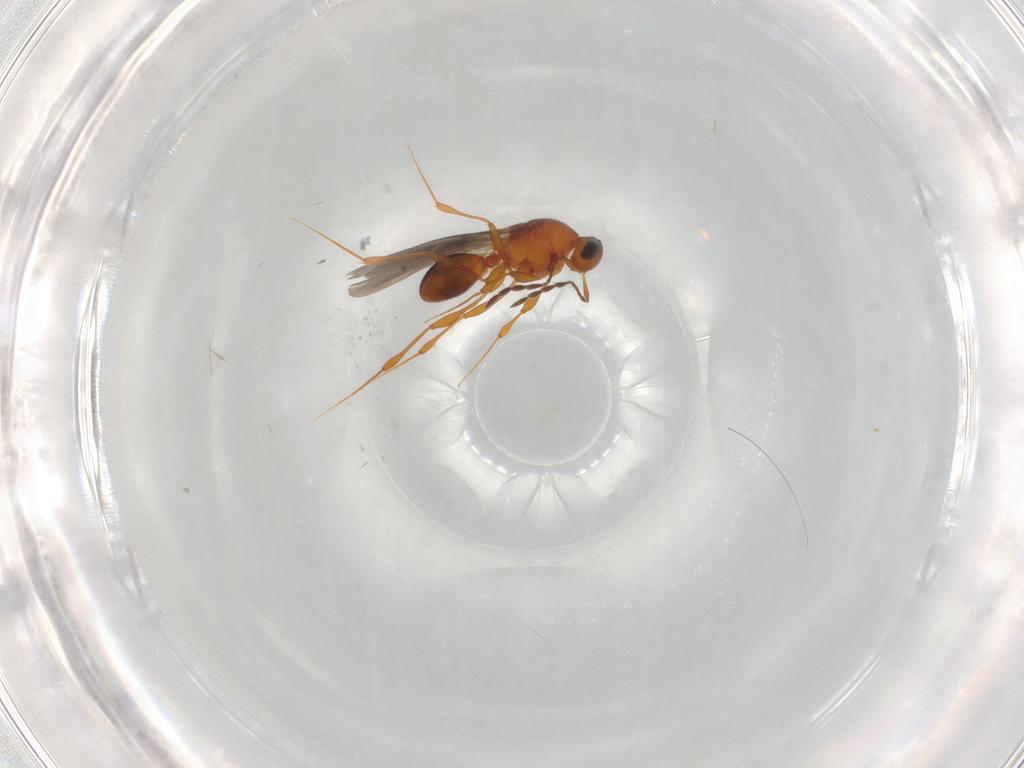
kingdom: Animalia
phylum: Arthropoda
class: Insecta
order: Hymenoptera
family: Platygastridae
